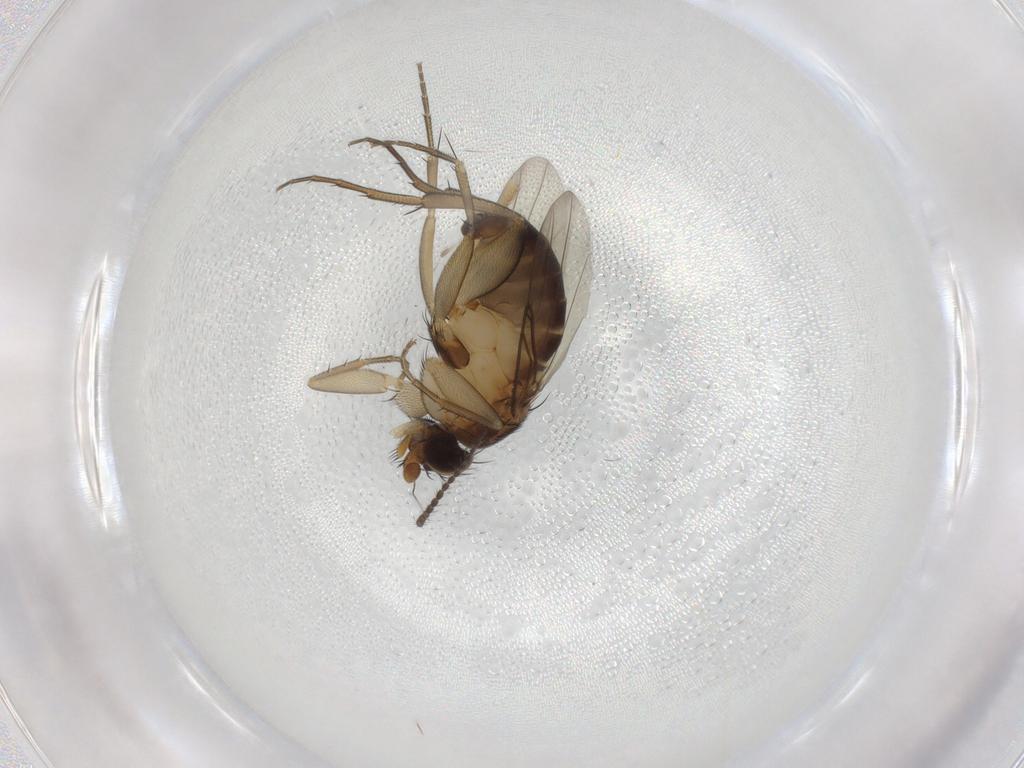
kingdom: Animalia
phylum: Arthropoda
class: Insecta
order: Diptera
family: Phoridae
